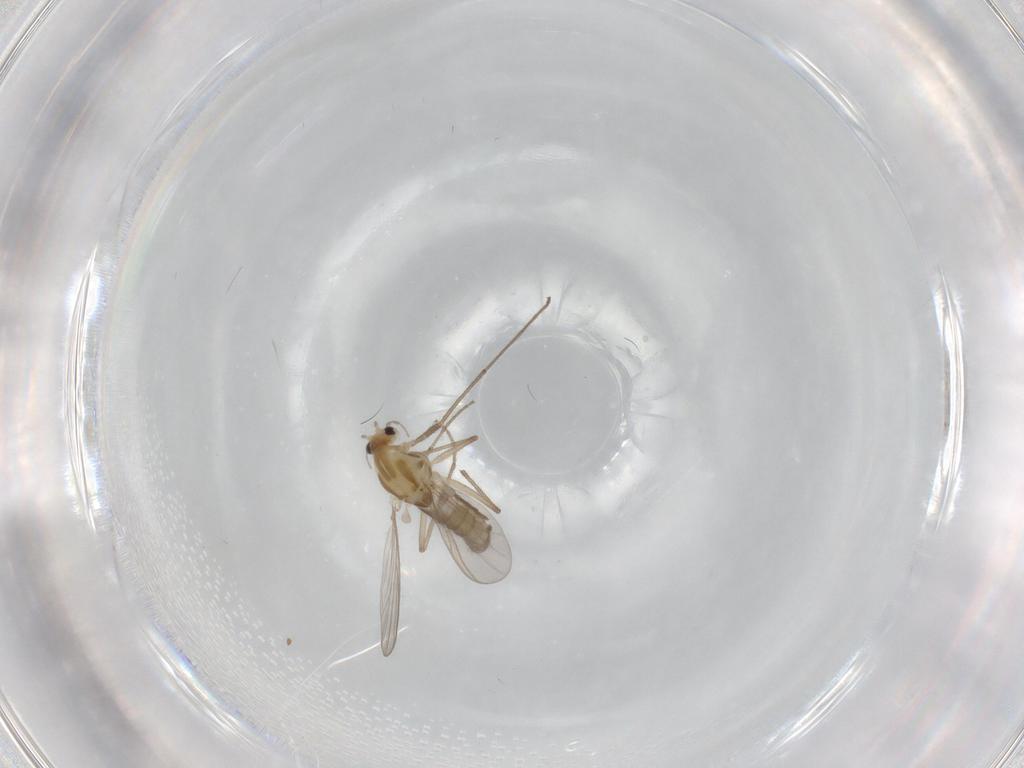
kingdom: Animalia
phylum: Arthropoda
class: Insecta
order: Diptera
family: Chironomidae
